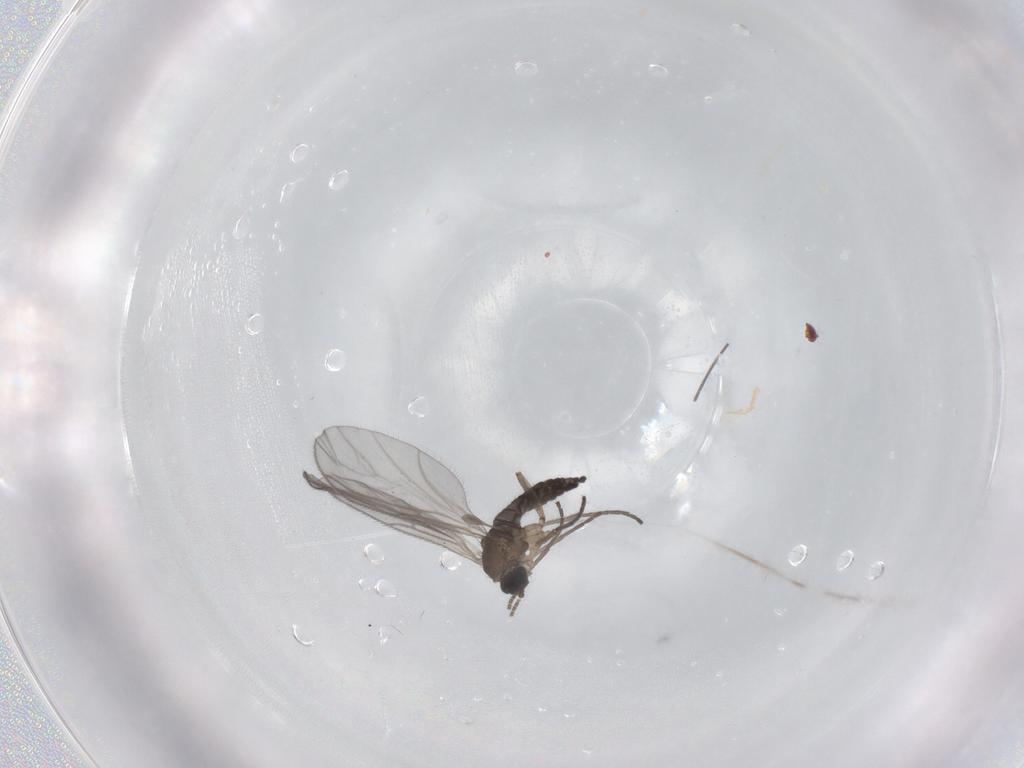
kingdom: Animalia
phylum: Arthropoda
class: Insecta
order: Diptera
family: Sciaridae
